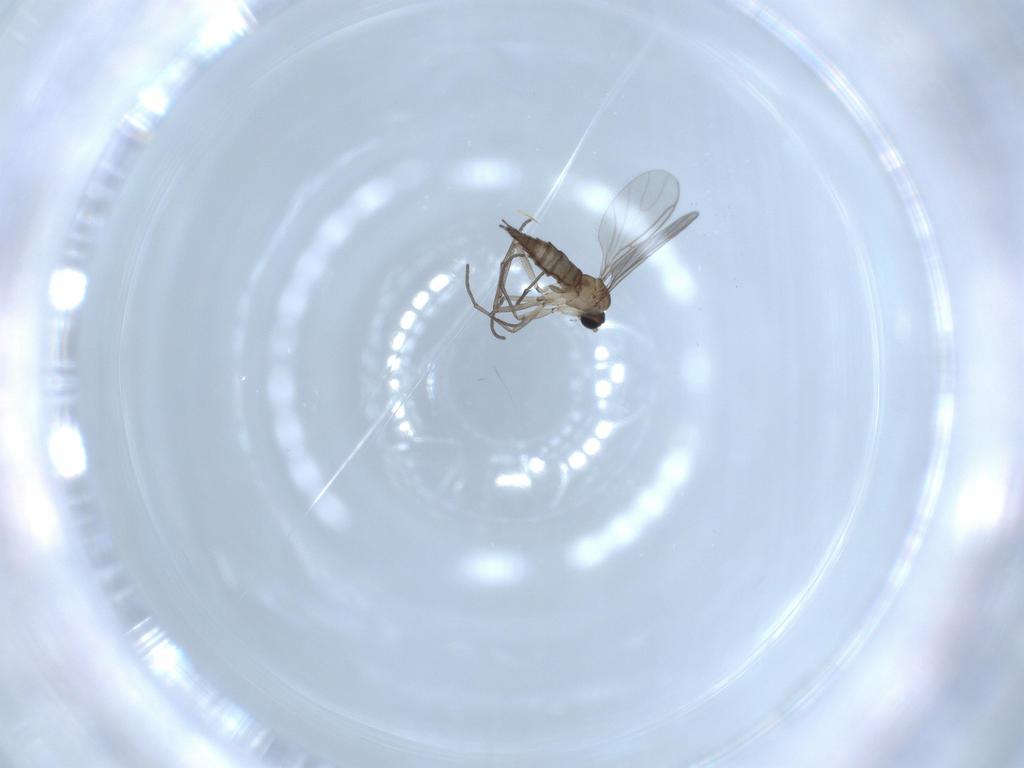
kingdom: Animalia
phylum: Arthropoda
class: Insecta
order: Diptera
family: Sciaridae
